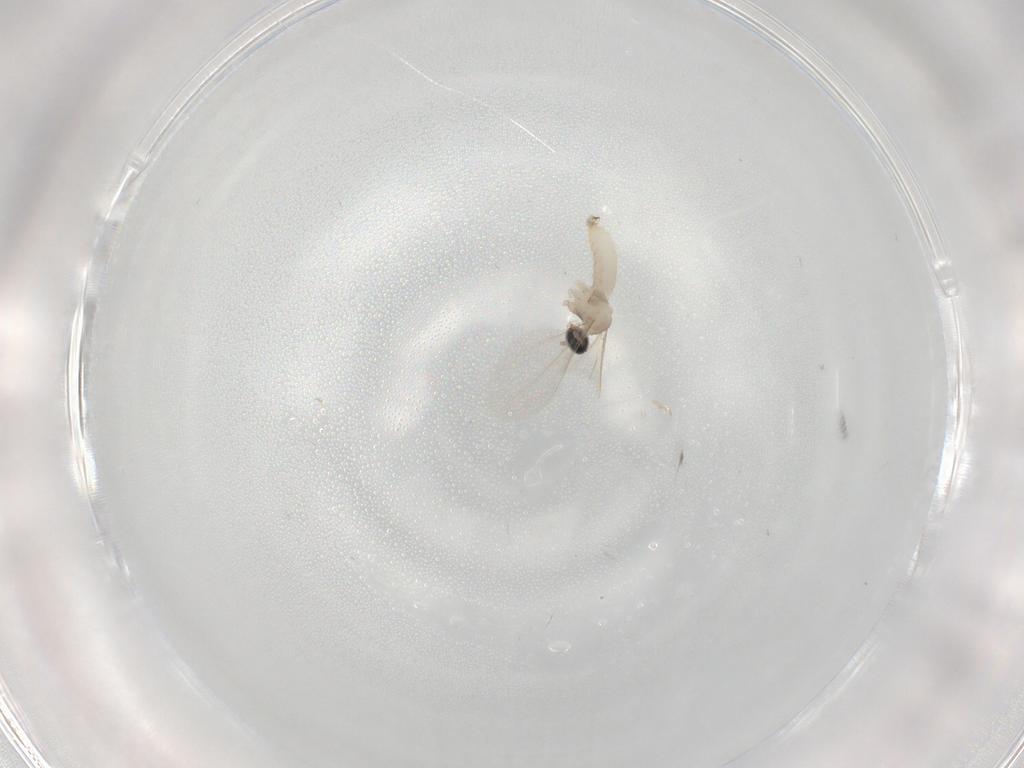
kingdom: Animalia
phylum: Arthropoda
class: Insecta
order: Diptera
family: Cecidomyiidae
